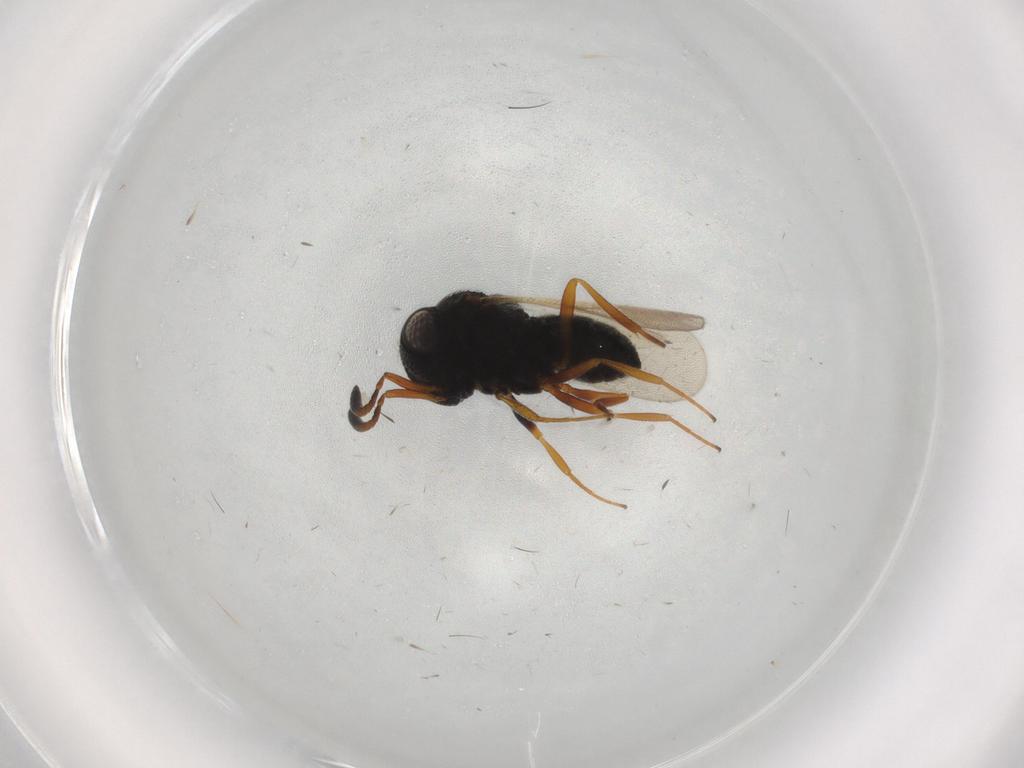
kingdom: Animalia
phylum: Arthropoda
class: Insecta
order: Hymenoptera
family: Scelionidae
